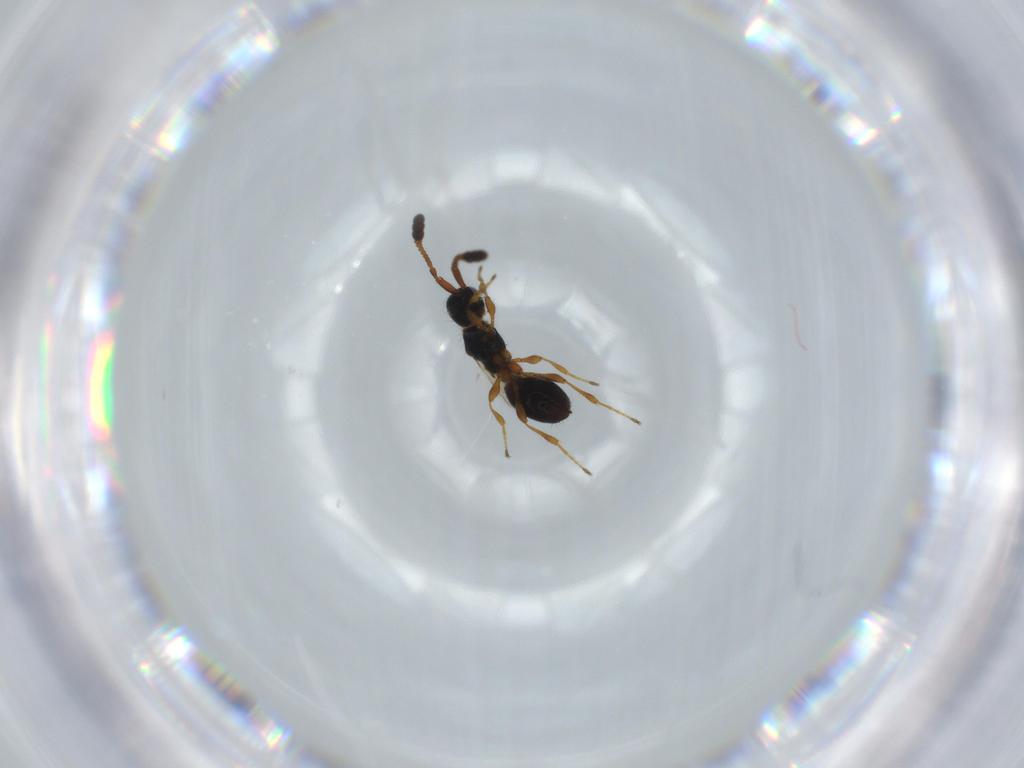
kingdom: Animalia
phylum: Arthropoda
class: Insecta
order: Hymenoptera
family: Diapriidae
